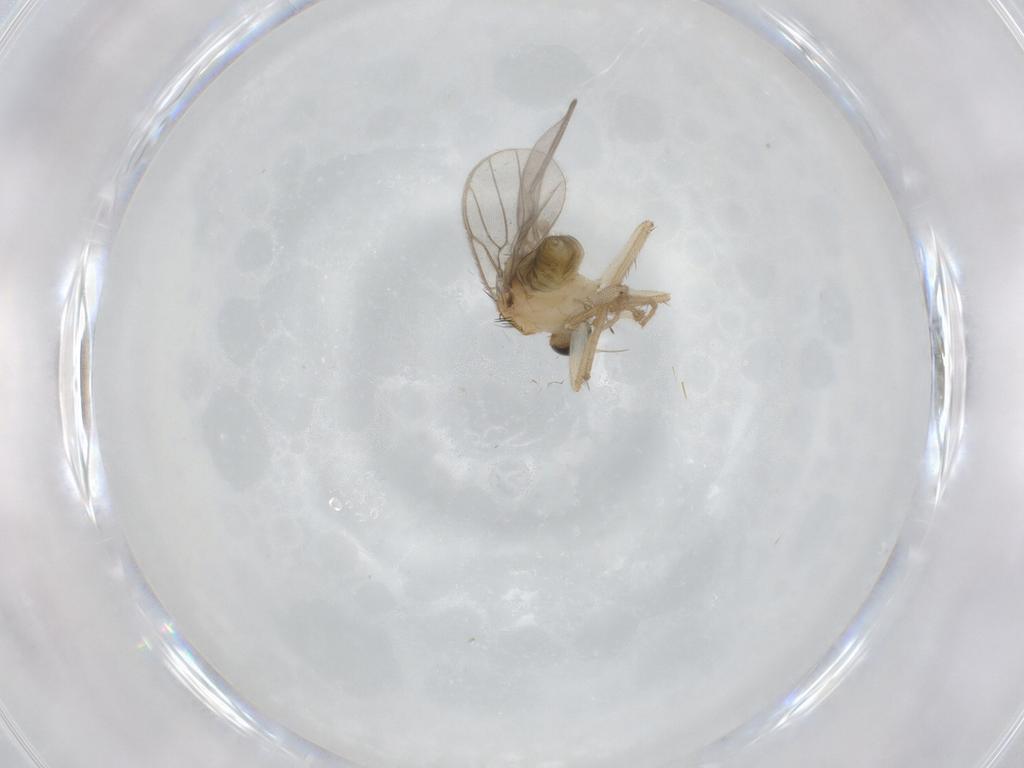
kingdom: Animalia
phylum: Arthropoda
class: Insecta
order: Diptera
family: Hybotidae
